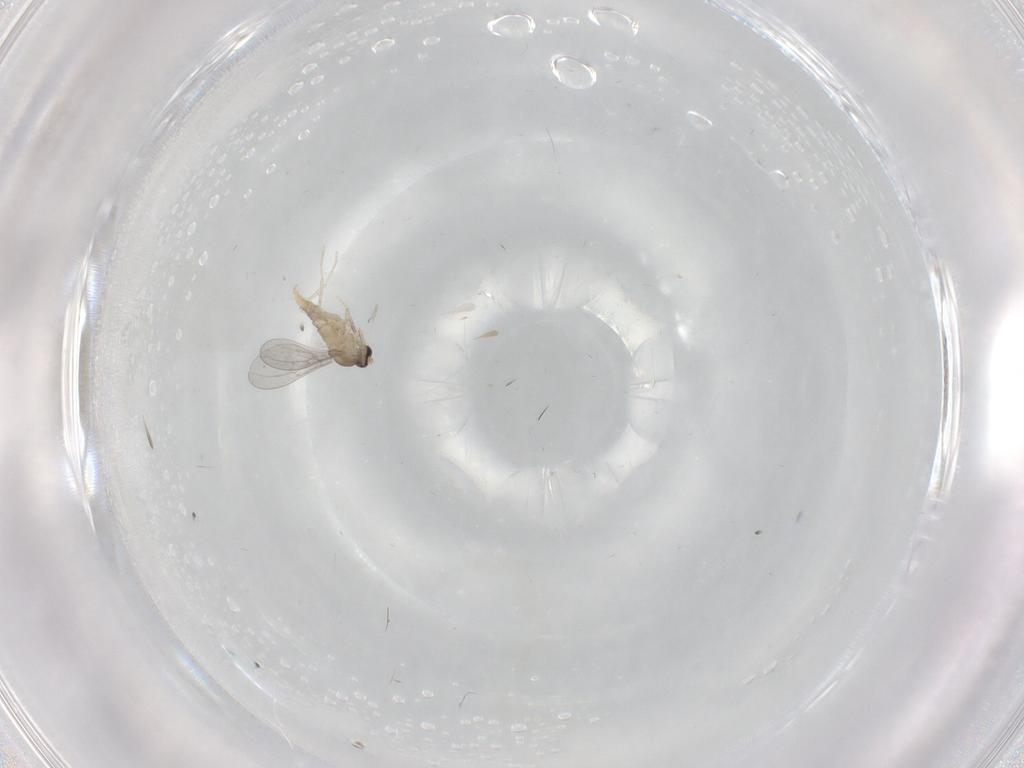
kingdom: Animalia
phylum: Arthropoda
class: Insecta
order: Diptera
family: Cecidomyiidae
